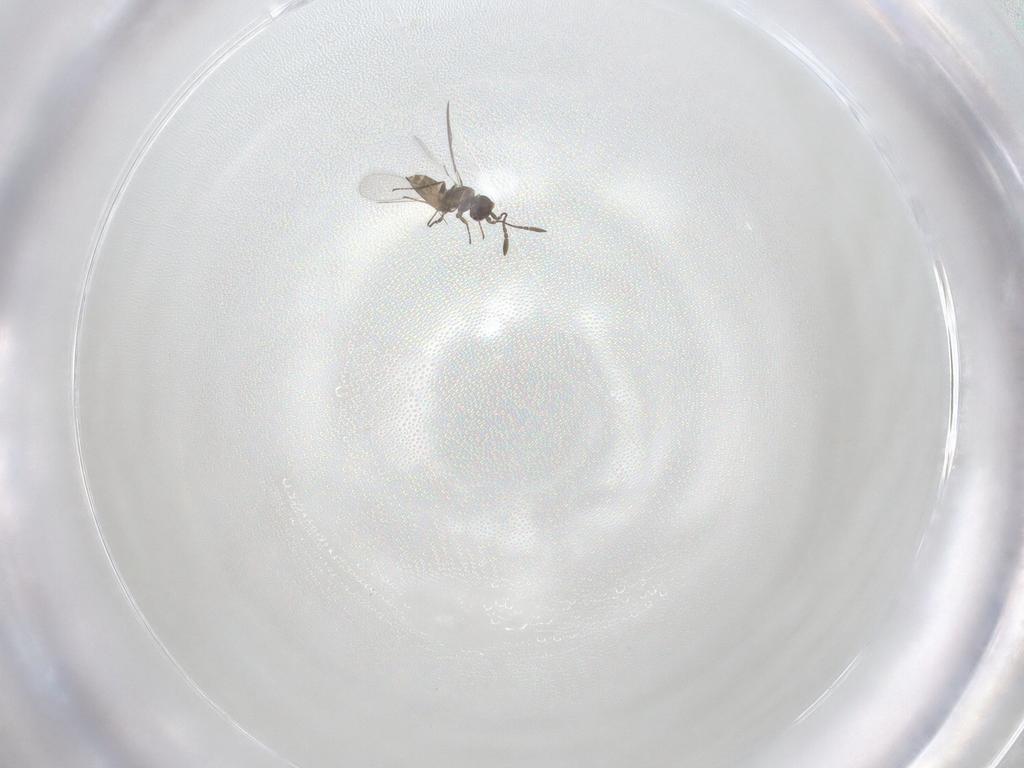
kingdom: Animalia
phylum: Arthropoda
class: Insecta
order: Hymenoptera
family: Mymaridae
